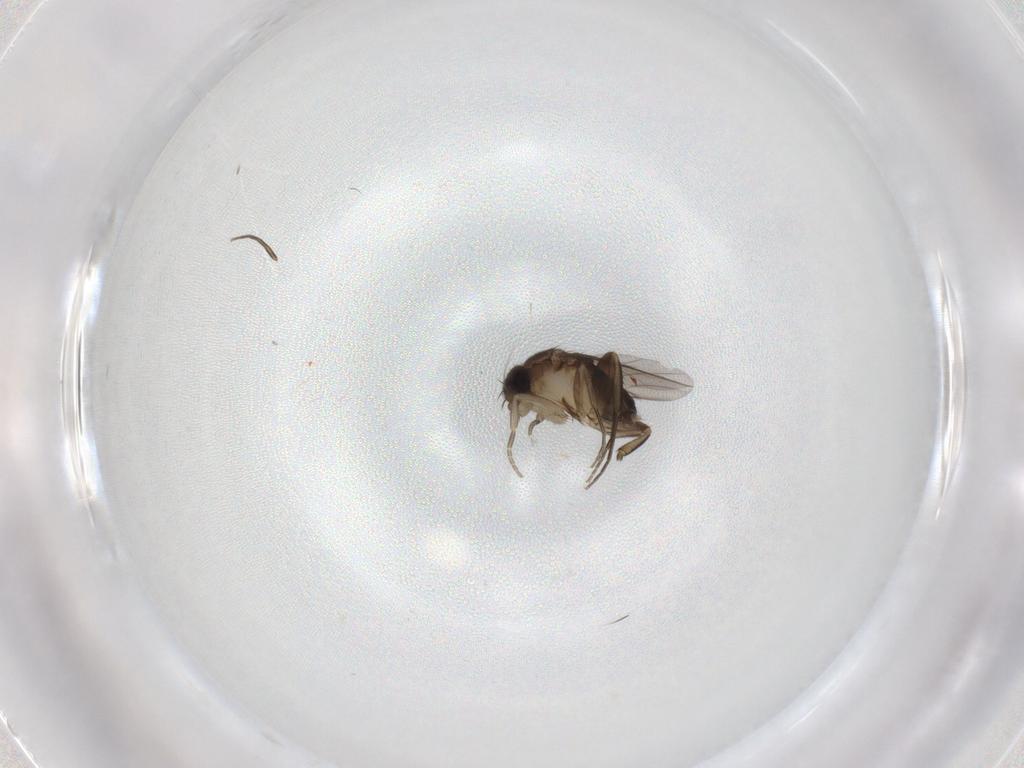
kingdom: Animalia
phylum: Arthropoda
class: Insecta
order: Diptera
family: Phoridae
